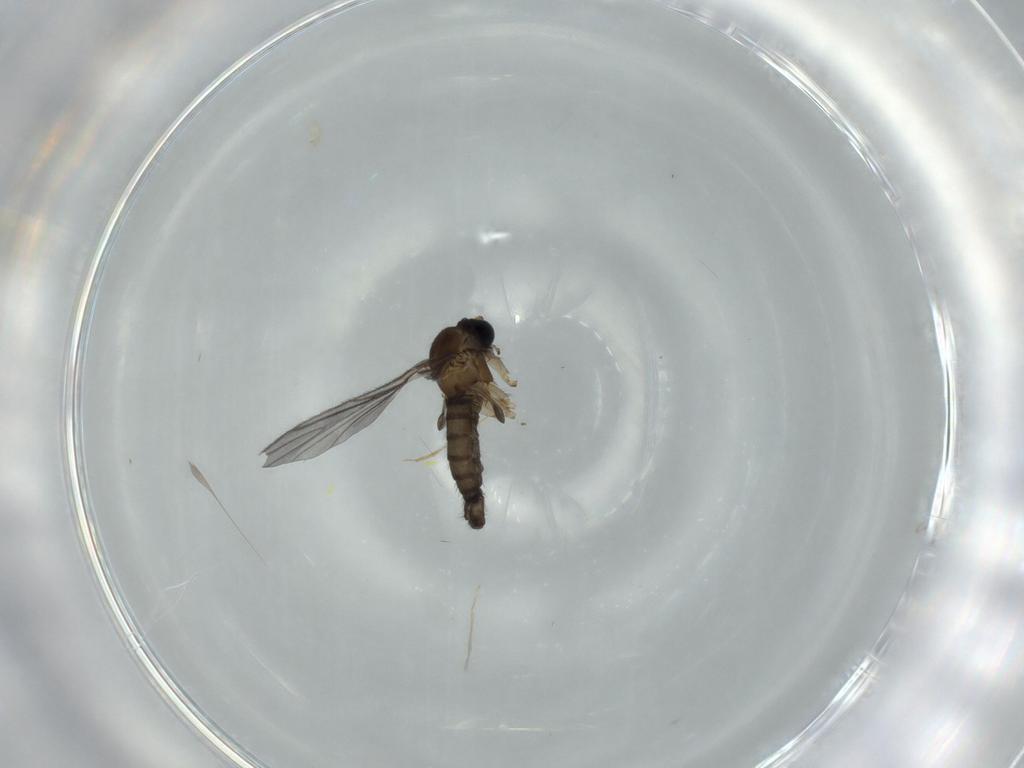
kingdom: Animalia
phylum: Arthropoda
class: Insecta
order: Diptera
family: Sciaridae
